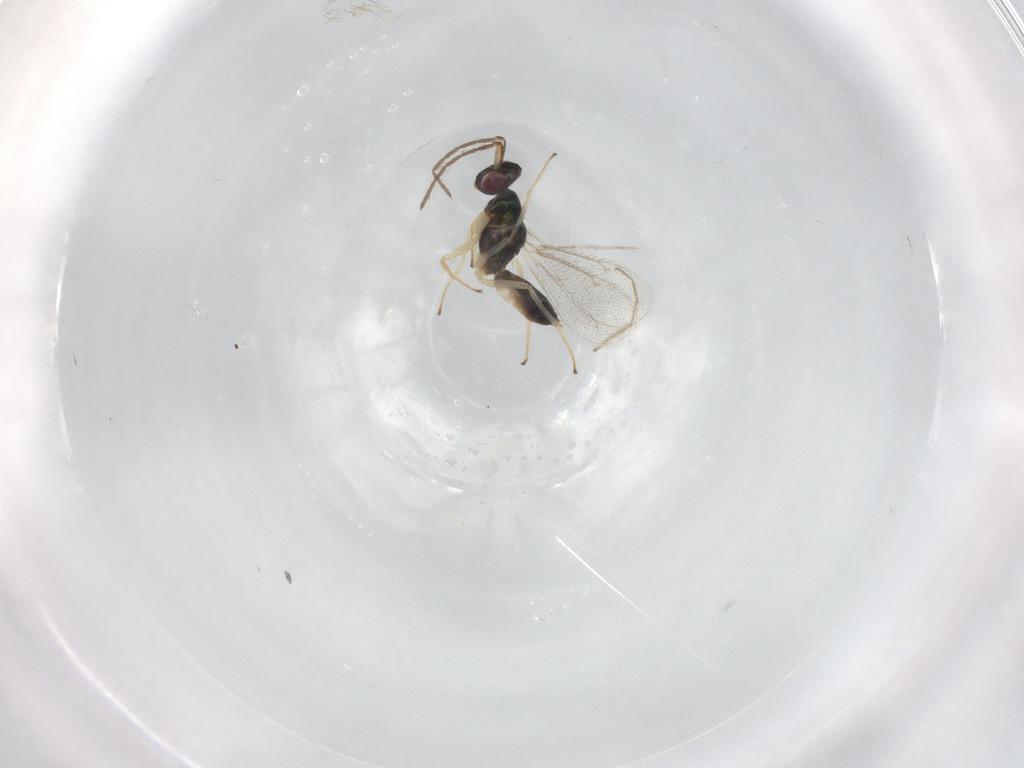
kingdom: Animalia
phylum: Arthropoda
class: Insecta
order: Hymenoptera
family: Eulophidae
